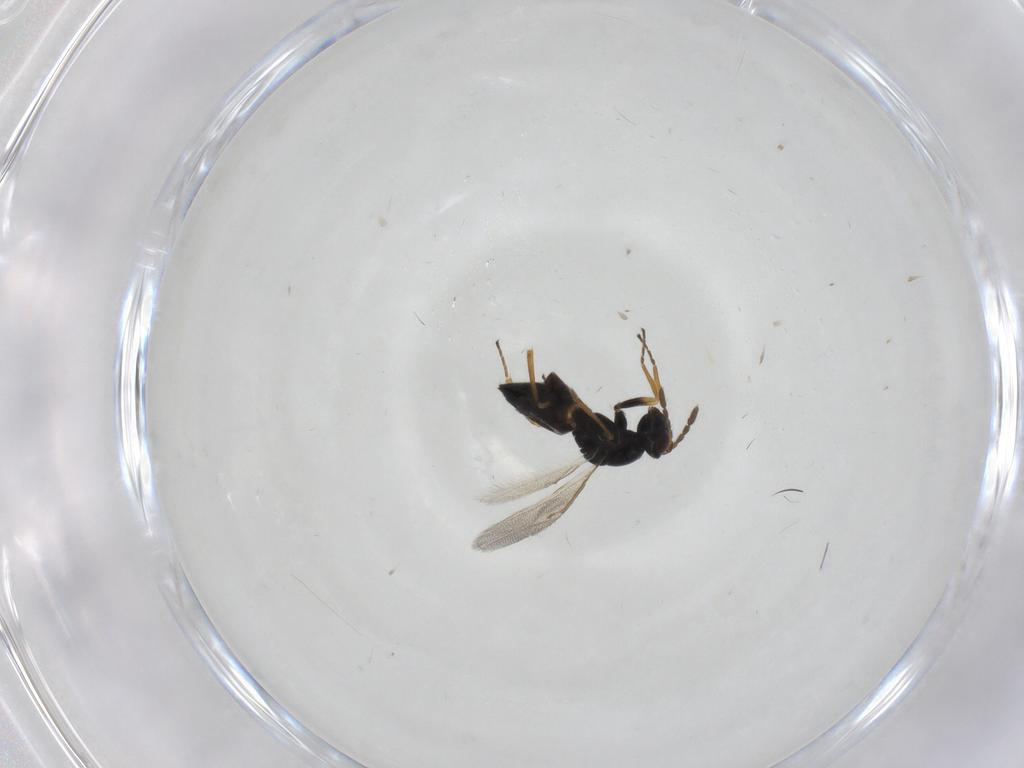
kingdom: Animalia
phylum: Arthropoda
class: Insecta
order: Hymenoptera
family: Eulophidae
